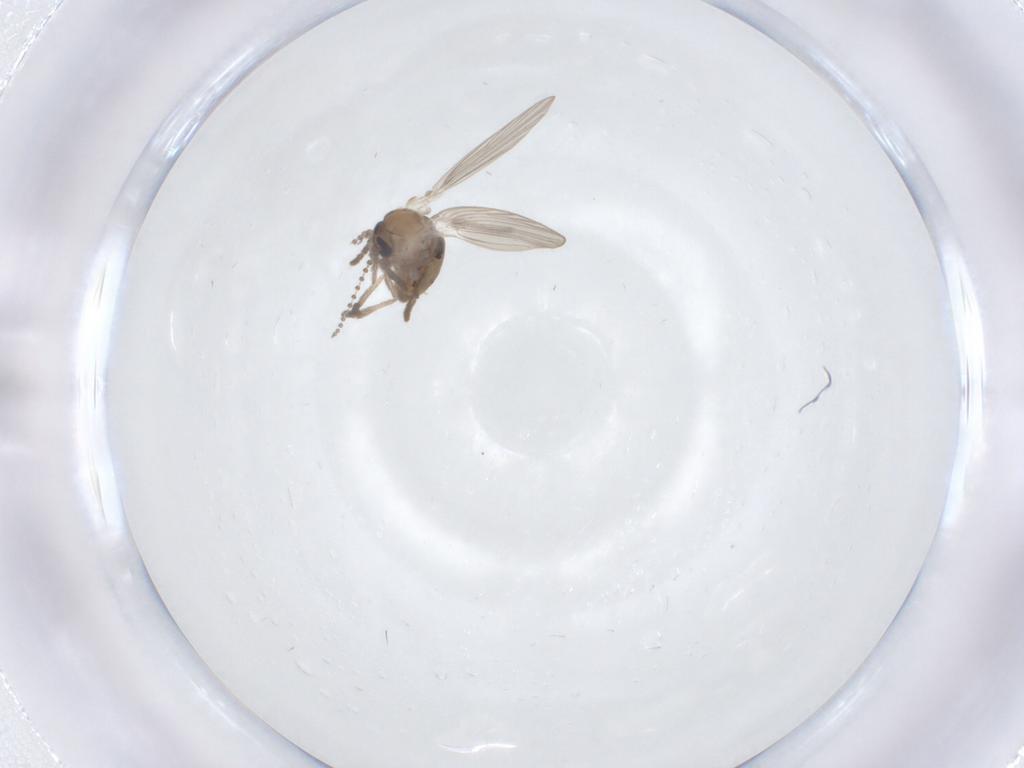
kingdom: Animalia
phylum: Arthropoda
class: Insecta
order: Diptera
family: Psychodidae
